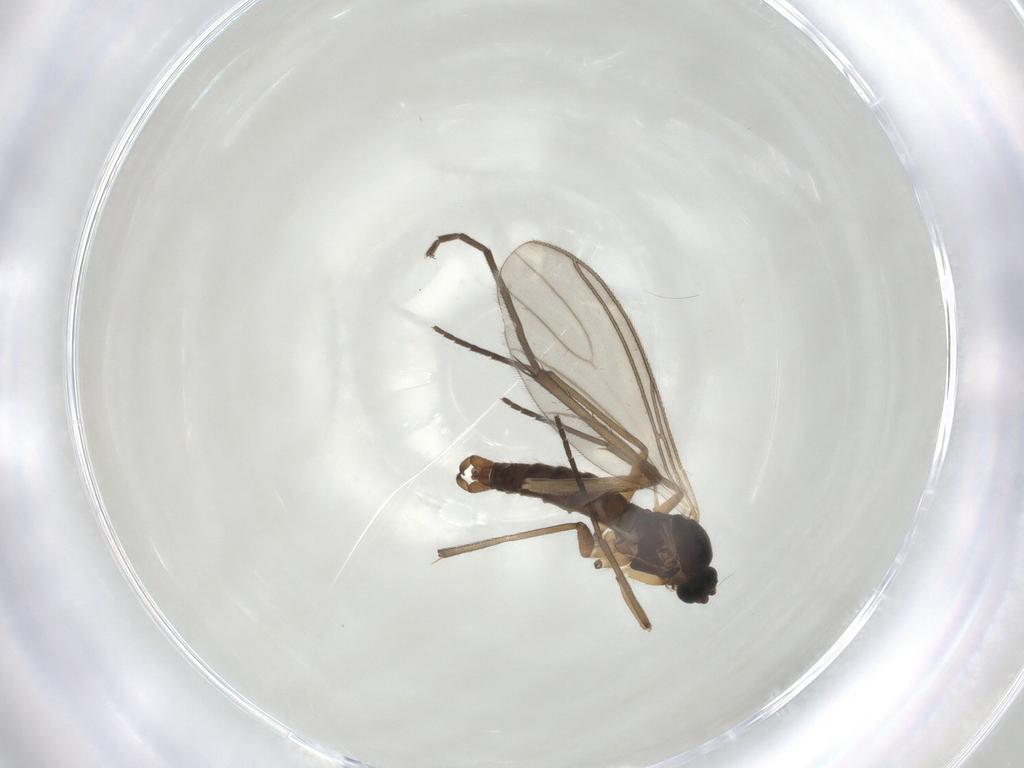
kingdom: Animalia
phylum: Arthropoda
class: Insecta
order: Diptera
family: Sciaridae
